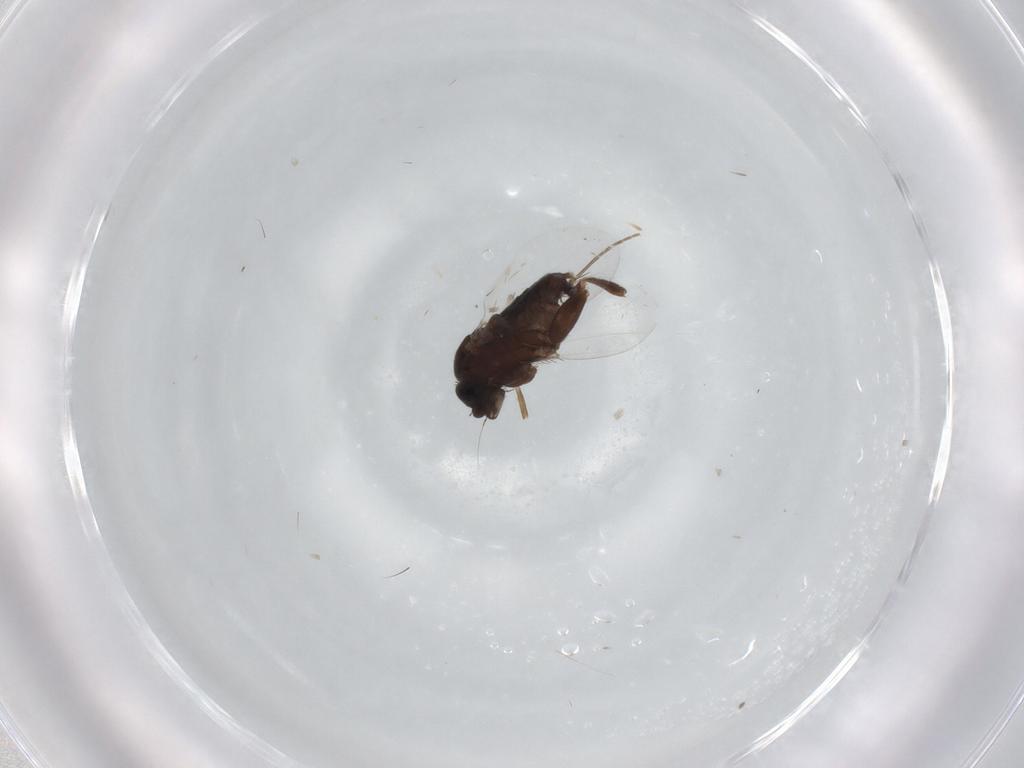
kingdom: Animalia
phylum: Arthropoda
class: Insecta
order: Diptera
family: Phoridae
